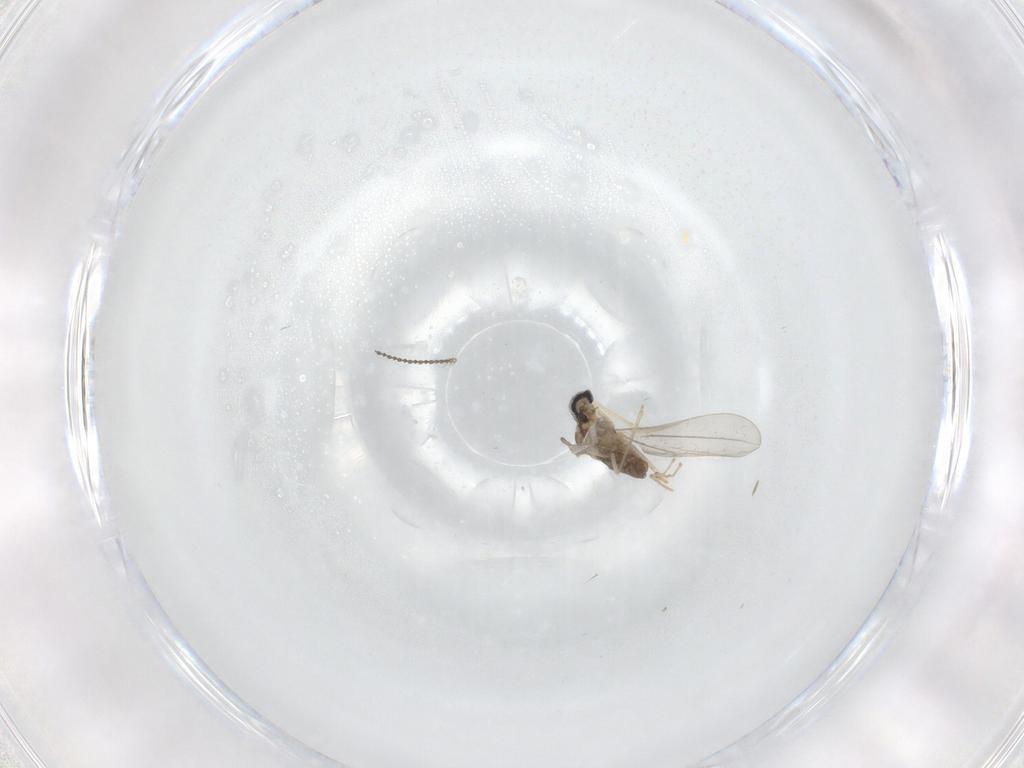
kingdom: Animalia
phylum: Arthropoda
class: Insecta
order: Diptera
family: Cecidomyiidae
